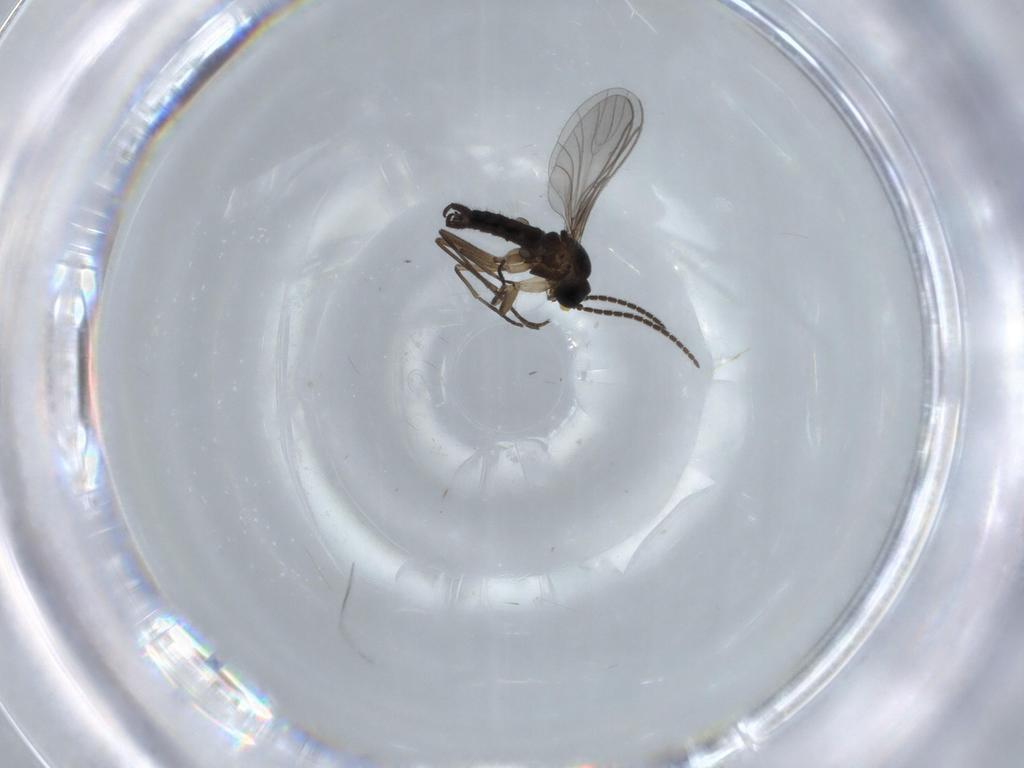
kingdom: Animalia
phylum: Arthropoda
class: Insecta
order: Diptera
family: Sciaridae
